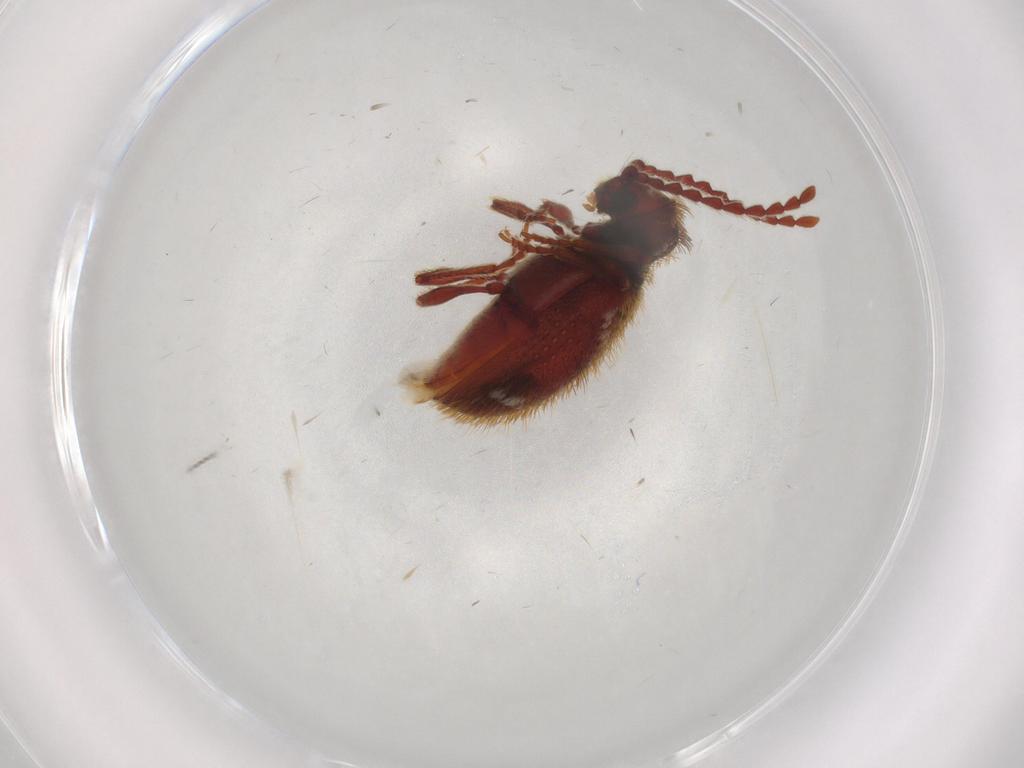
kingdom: Animalia
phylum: Arthropoda
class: Insecta
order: Coleoptera
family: Ptinidae
